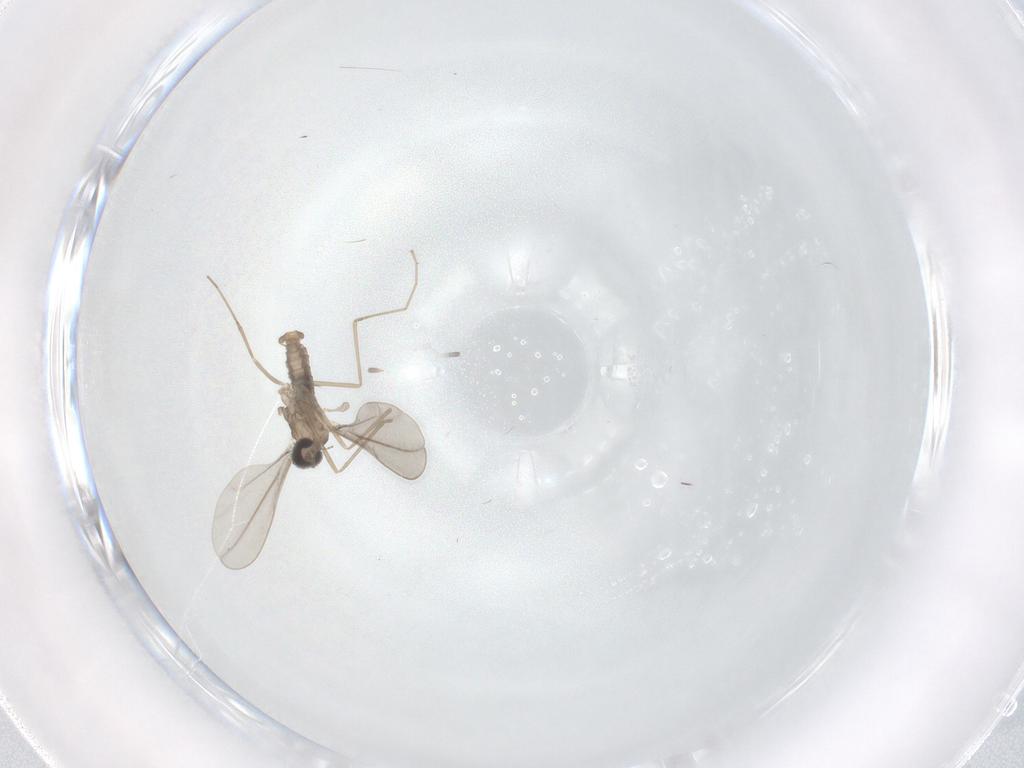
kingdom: Animalia
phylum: Arthropoda
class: Insecta
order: Diptera
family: Cecidomyiidae
